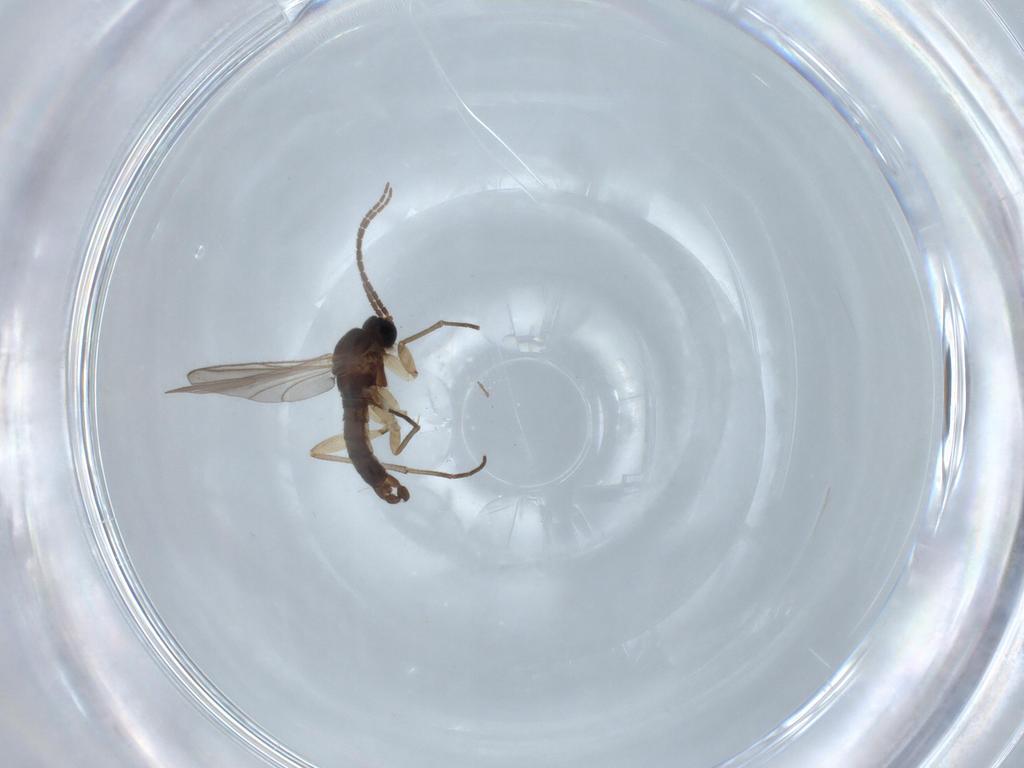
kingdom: Animalia
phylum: Arthropoda
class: Insecta
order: Diptera
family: Sciaridae
